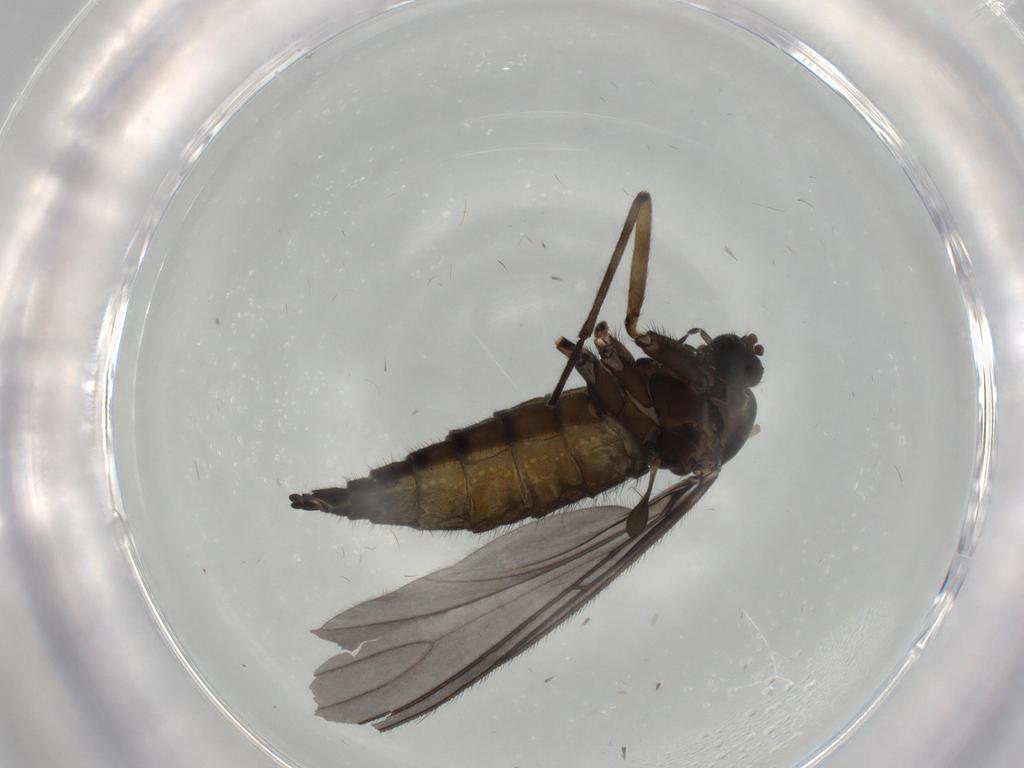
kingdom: Animalia
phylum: Arthropoda
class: Insecta
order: Diptera
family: Sciaridae
